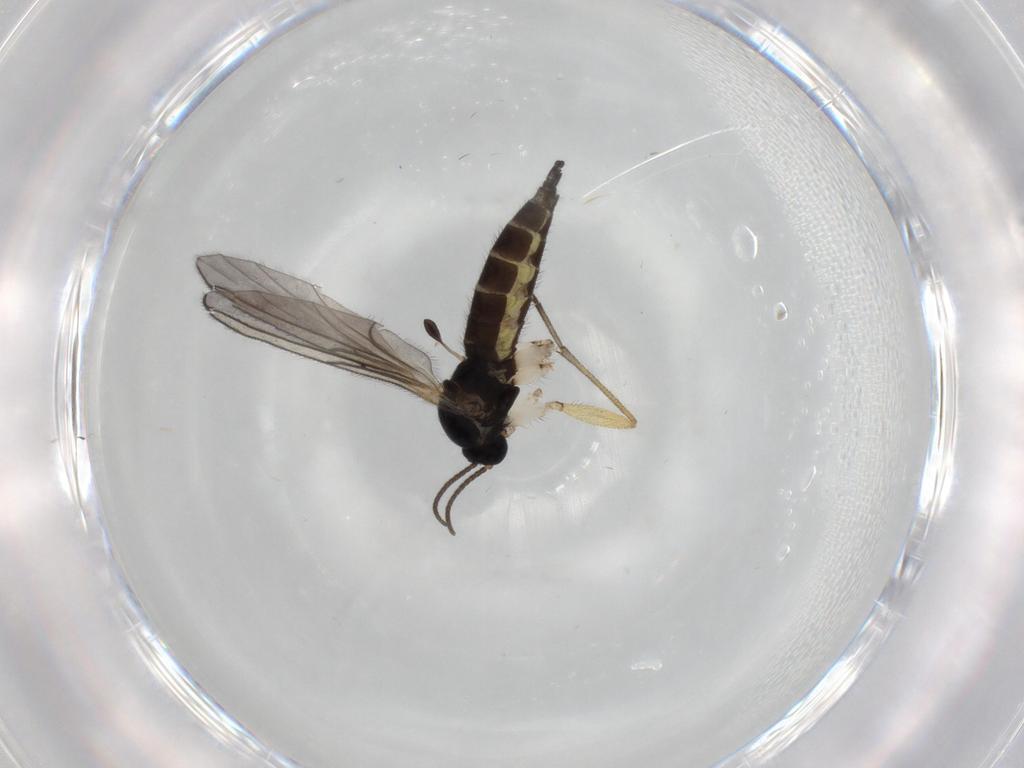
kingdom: Animalia
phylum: Arthropoda
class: Insecta
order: Diptera
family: Sciaridae
